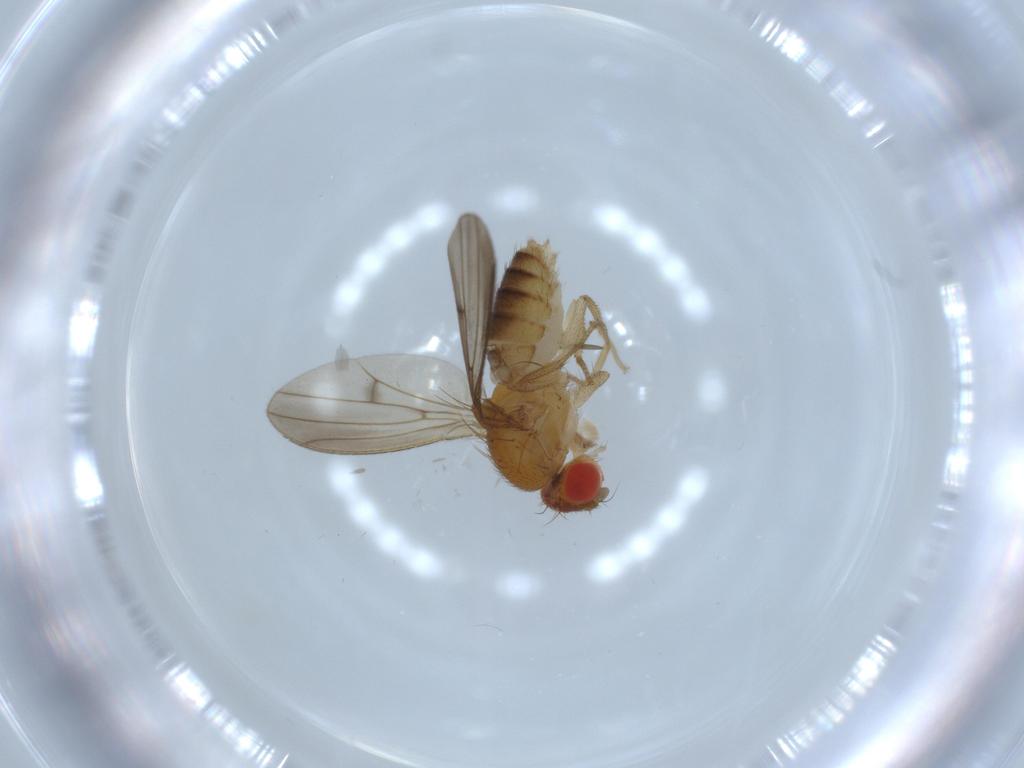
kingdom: Animalia
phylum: Arthropoda
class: Insecta
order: Diptera
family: Drosophilidae
